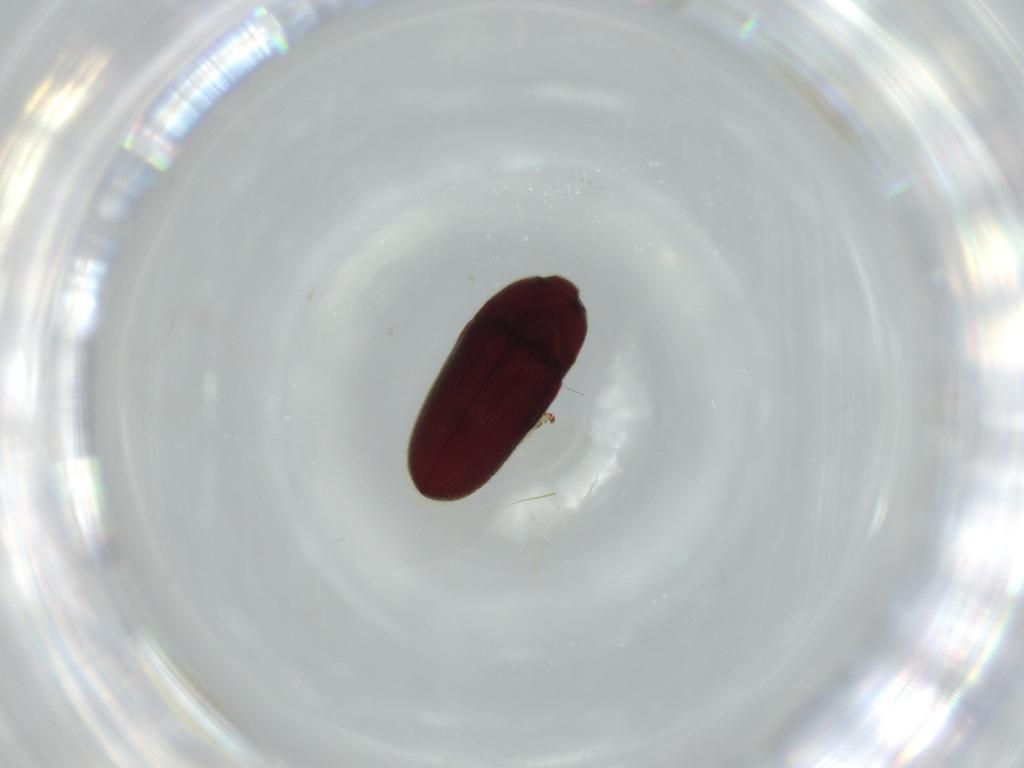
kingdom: Animalia
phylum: Arthropoda
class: Insecta
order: Coleoptera
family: Throscidae
